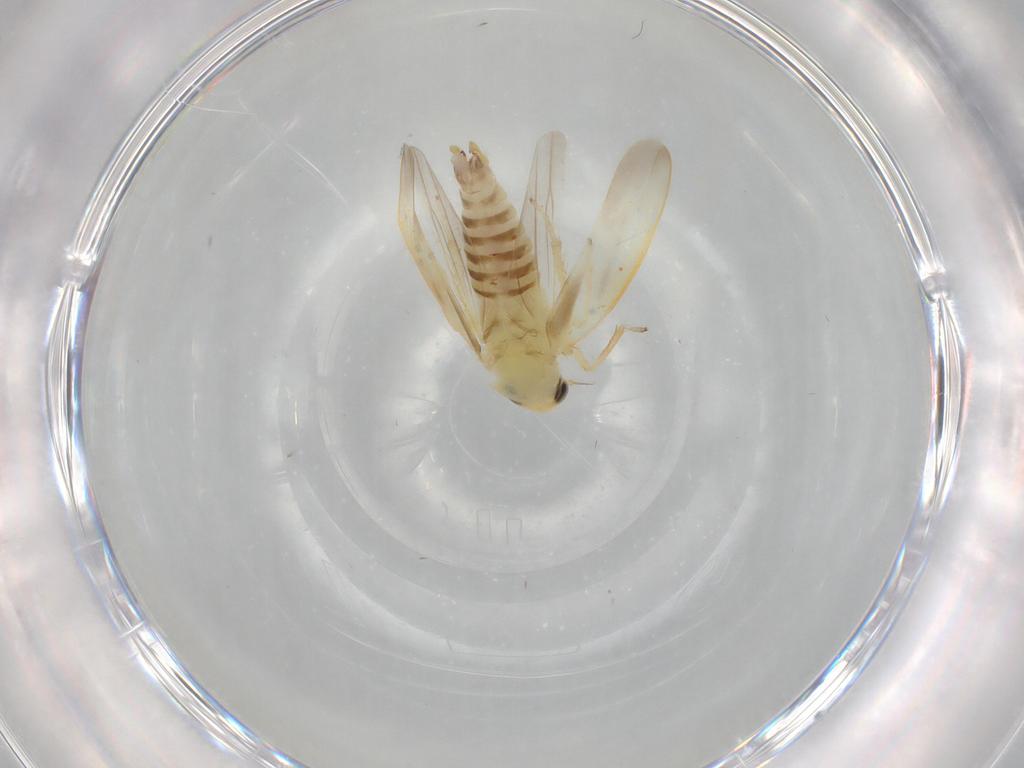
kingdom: Animalia
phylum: Arthropoda
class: Insecta
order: Hemiptera
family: Cicadellidae
